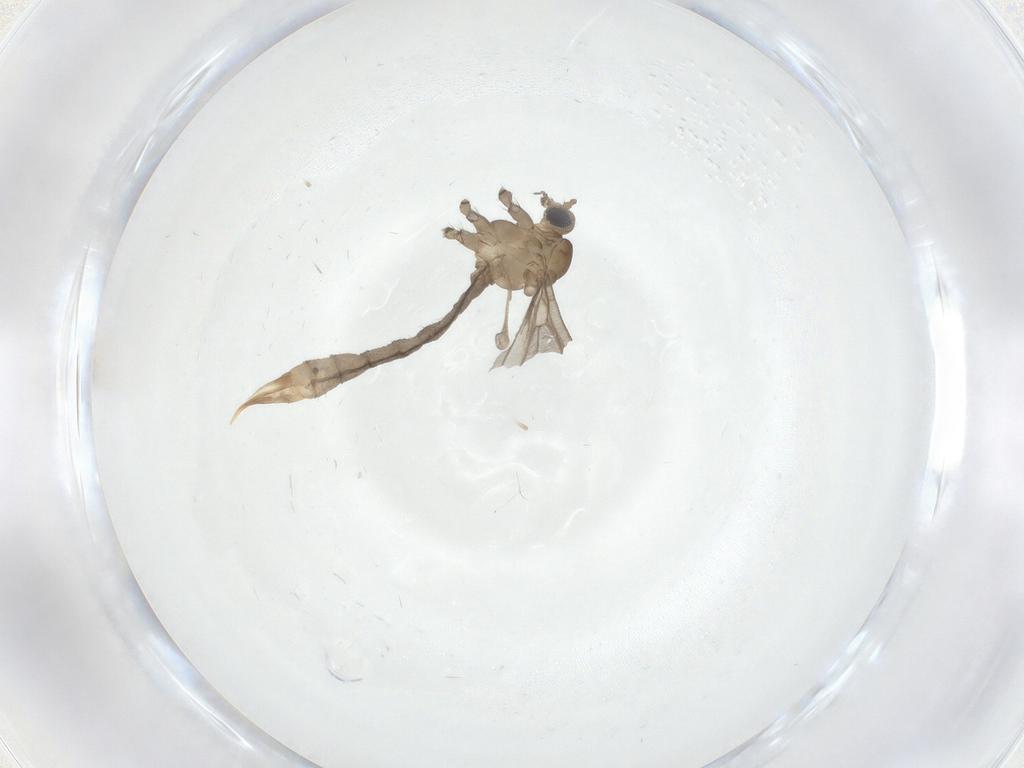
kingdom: Animalia
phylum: Arthropoda
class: Insecta
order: Diptera
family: Limoniidae
